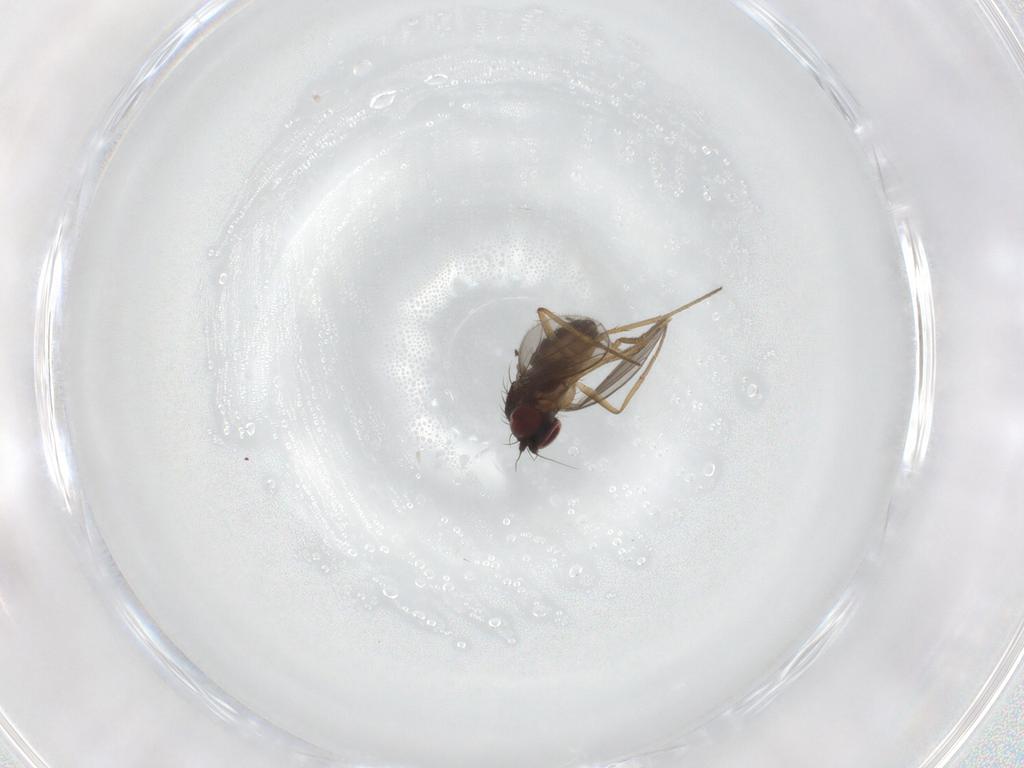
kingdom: Animalia
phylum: Arthropoda
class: Insecta
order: Diptera
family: Dolichopodidae
